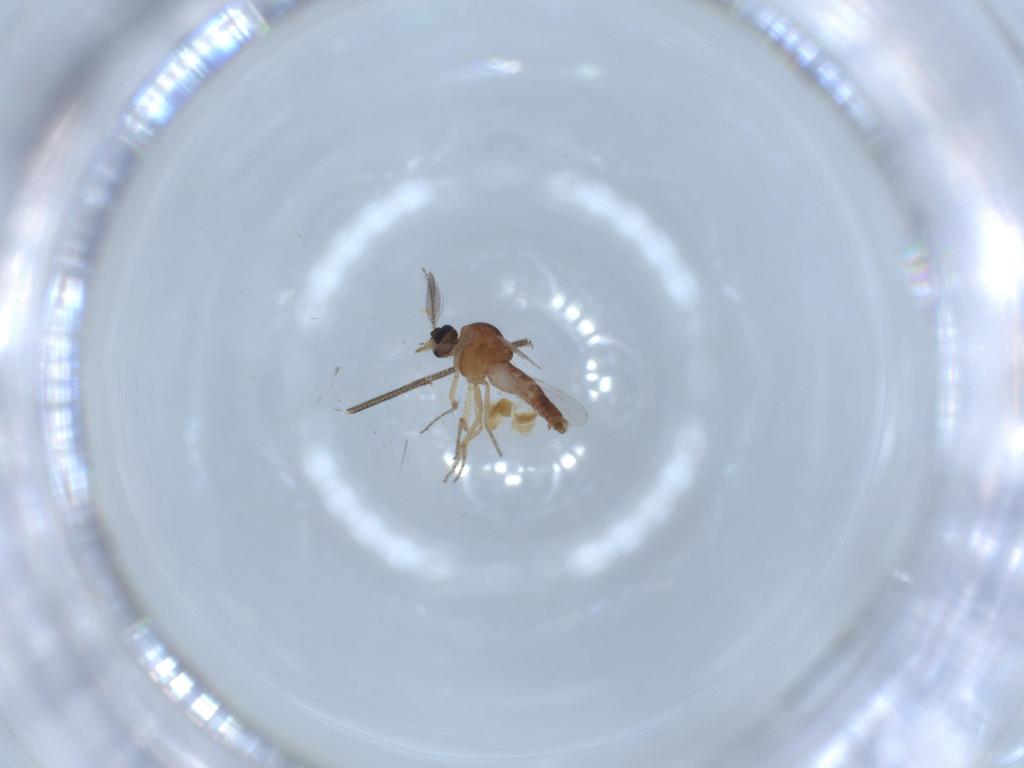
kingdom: Animalia
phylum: Arthropoda
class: Insecta
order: Diptera
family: Ceratopogonidae
